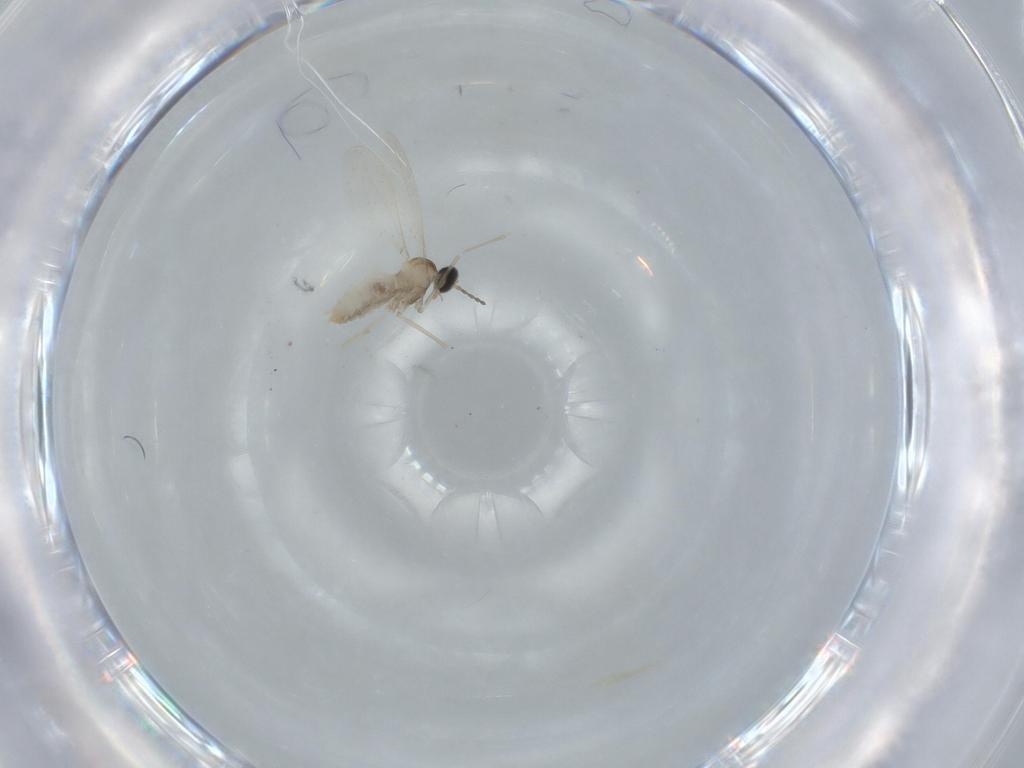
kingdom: Animalia
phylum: Arthropoda
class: Insecta
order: Diptera
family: Cecidomyiidae
